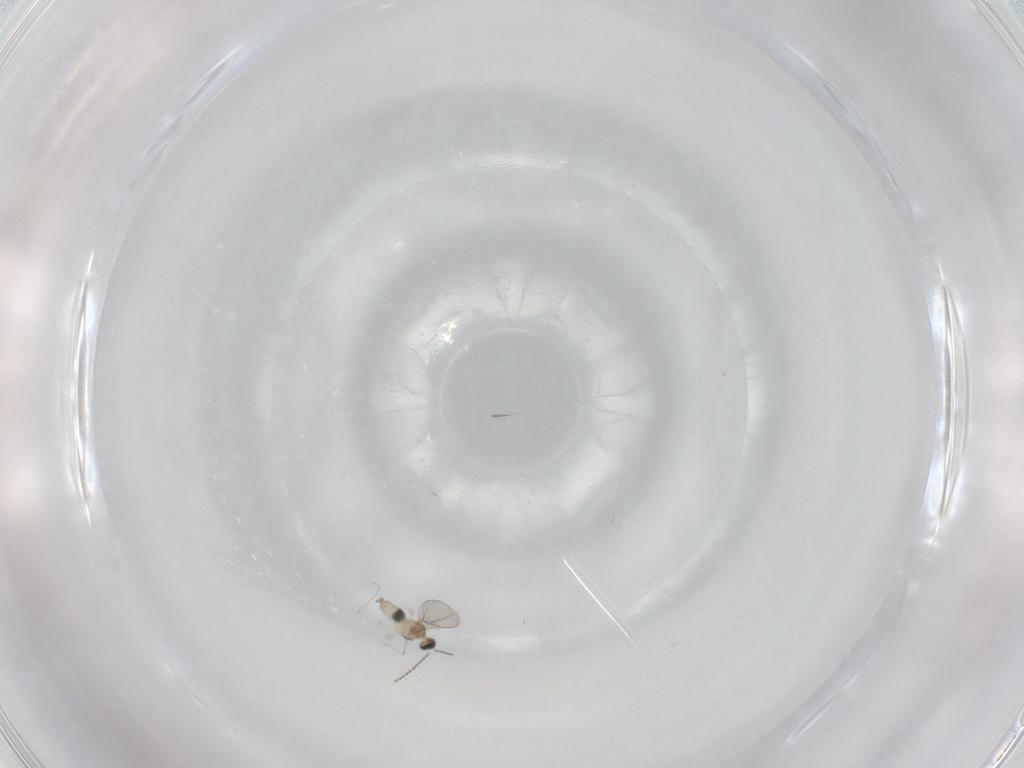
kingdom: Animalia
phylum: Arthropoda
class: Insecta
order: Diptera
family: Cecidomyiidae
